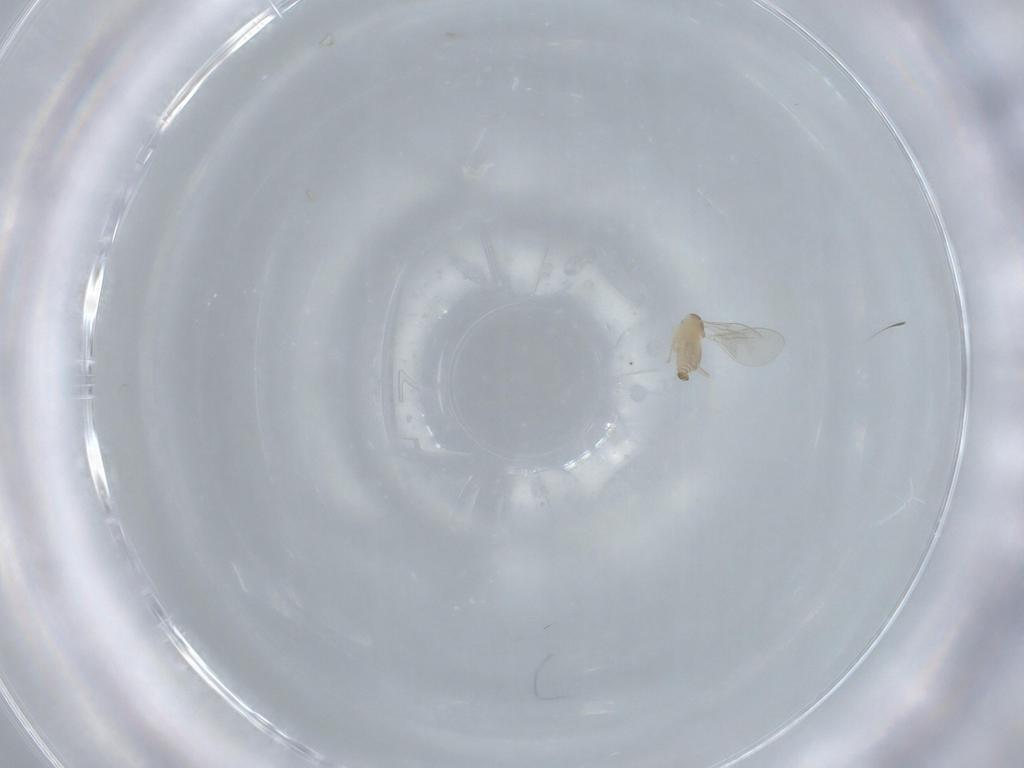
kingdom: Animalia
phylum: Arthropoda
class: Insecta
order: Diptera
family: Cecidomyiidae
